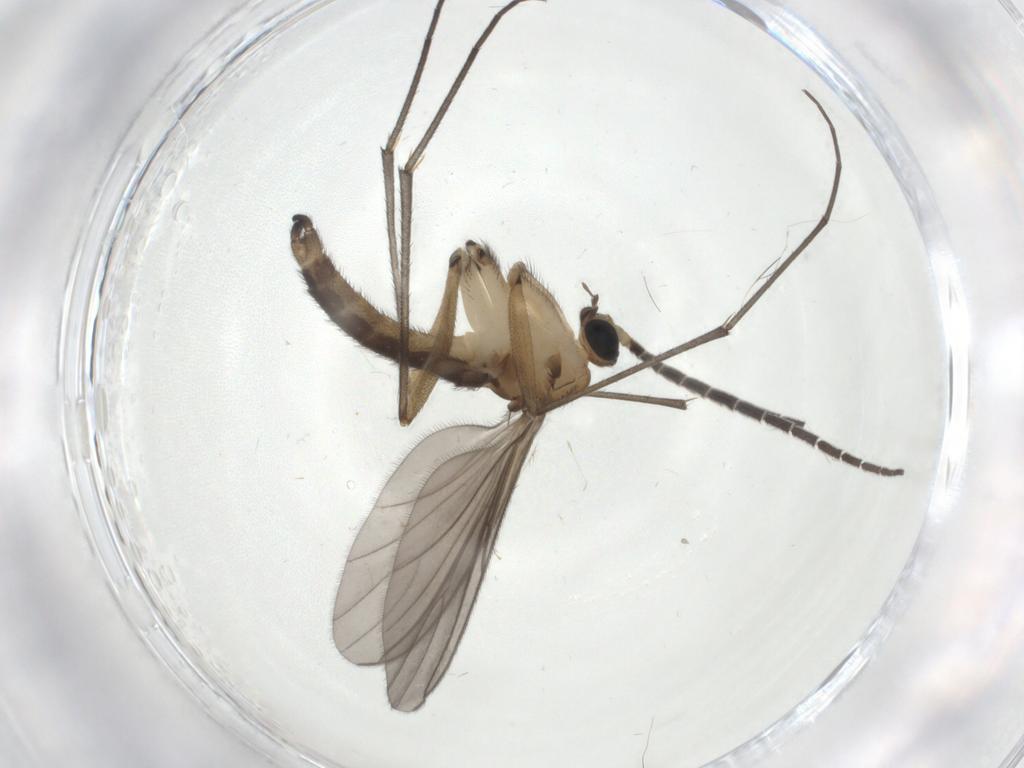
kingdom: Animalia
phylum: Arthropoda
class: Insecta
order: Diptera
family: Cecidomyiidae
